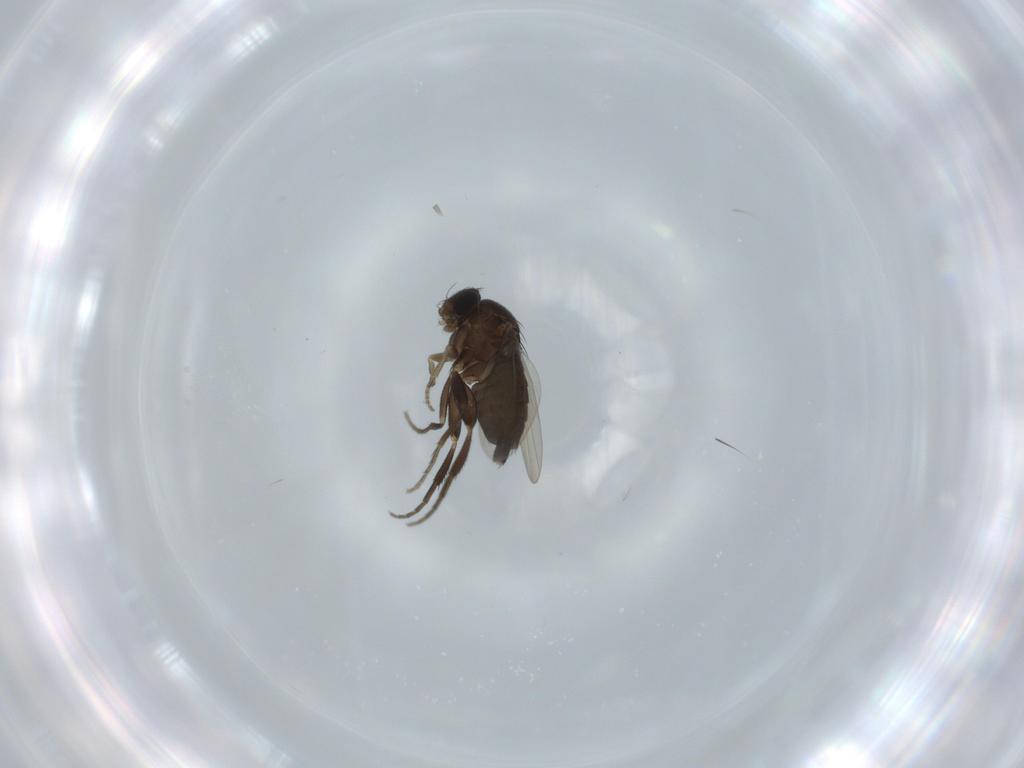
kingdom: Animalia
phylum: Arthropoda
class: Insecta
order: Diptera
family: Phoridae
